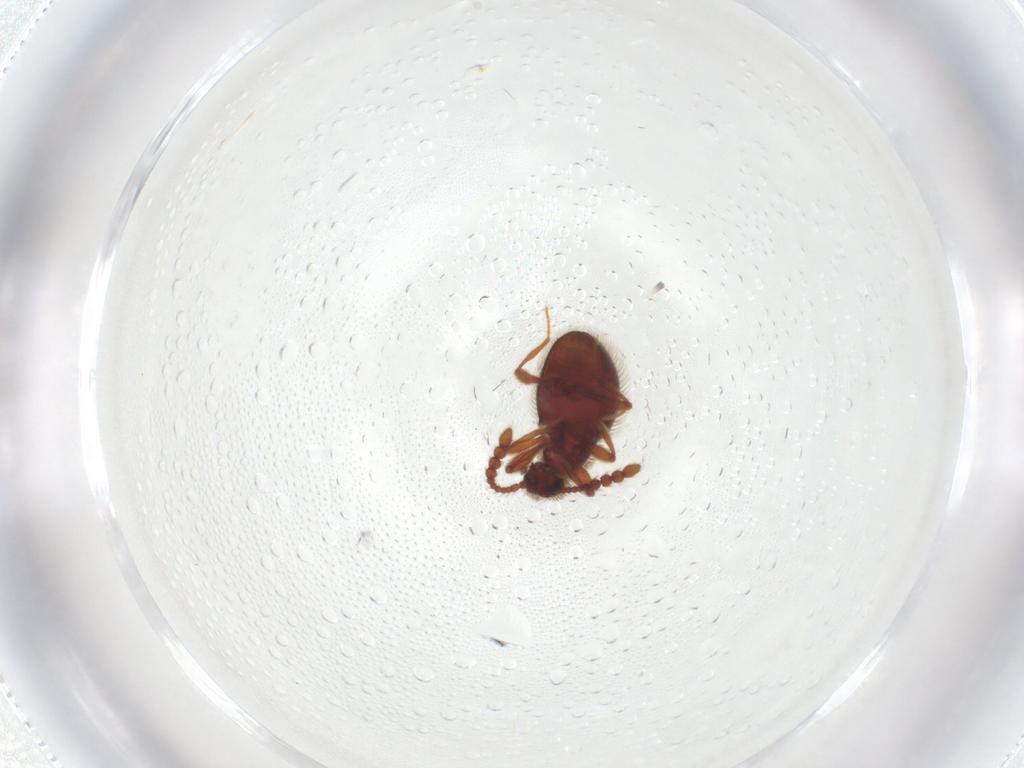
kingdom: Animalia
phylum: Arthropoda
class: Insecta
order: Coleoptera
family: Staphylinidae
